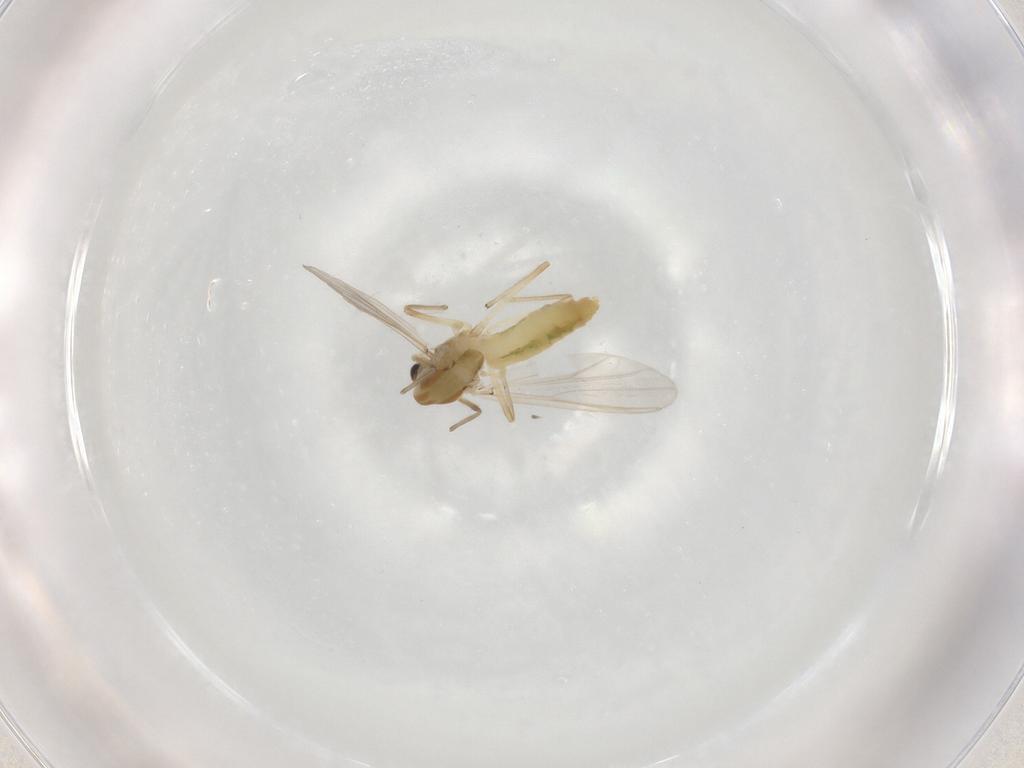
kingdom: Animalia
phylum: Arthropoda
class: Insecta
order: Diptera
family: Chironomidae
